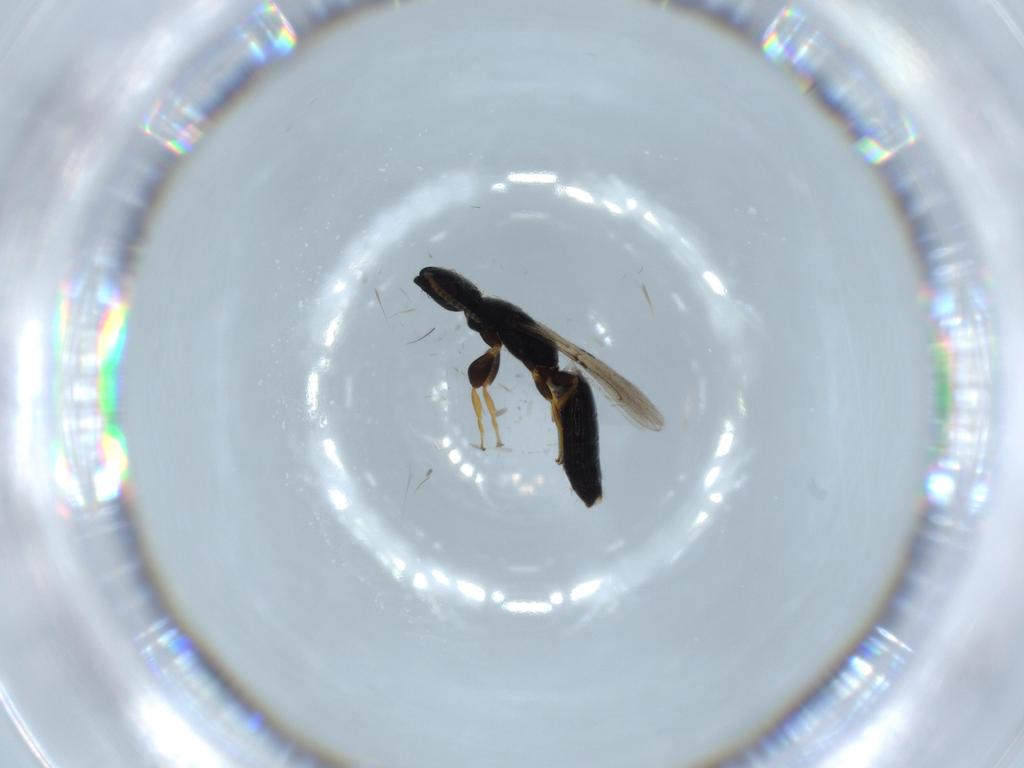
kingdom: Animalia
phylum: Arthropoda
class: Insecta
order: Hymenoptera
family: Bethylidae
